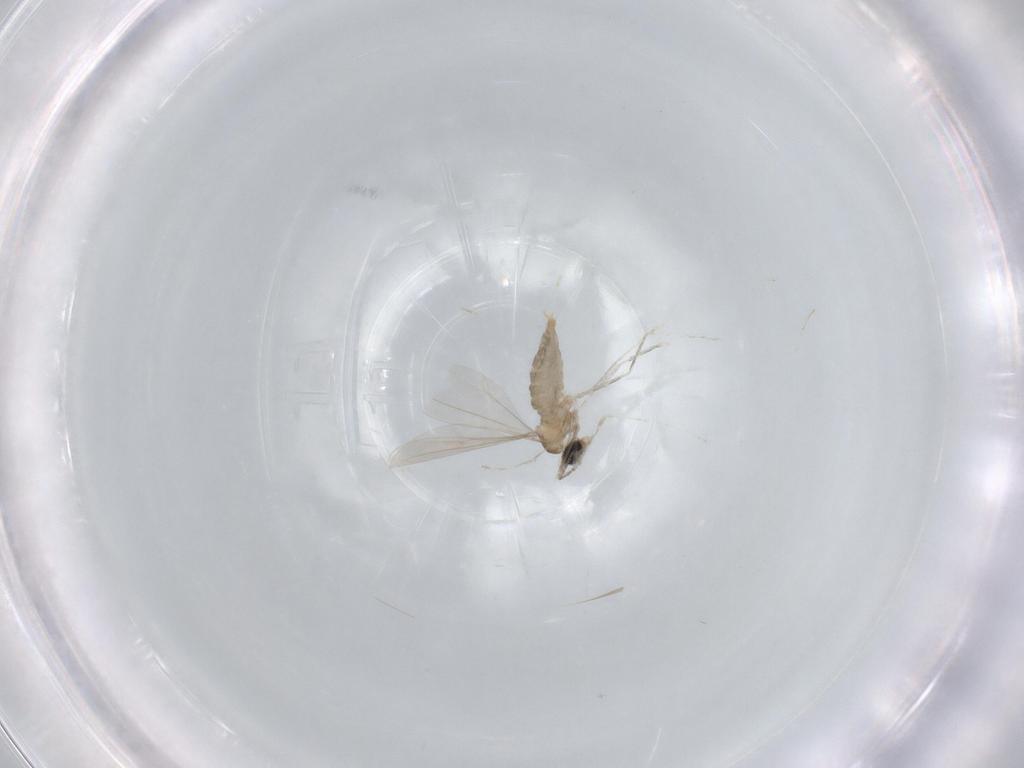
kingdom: Animalia
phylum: Arthropoda
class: Insecta
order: Diptera
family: Cecidomyiidae
